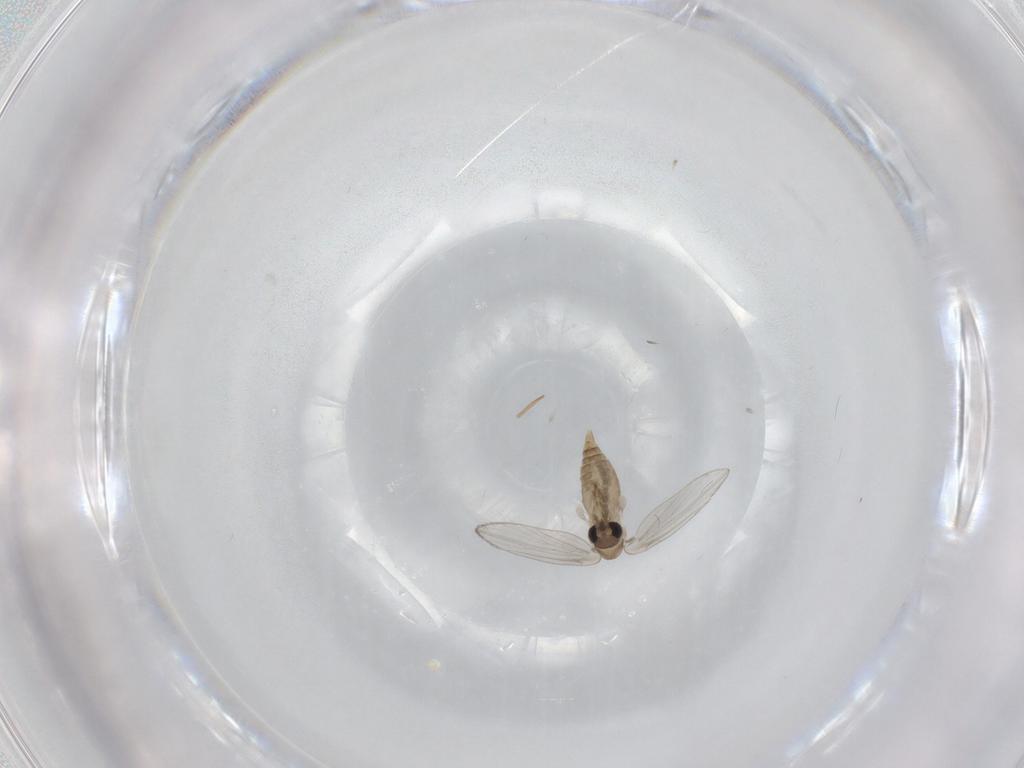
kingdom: Animalia
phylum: Arthropoda
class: Insecta
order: Diptera
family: Psychodidae
